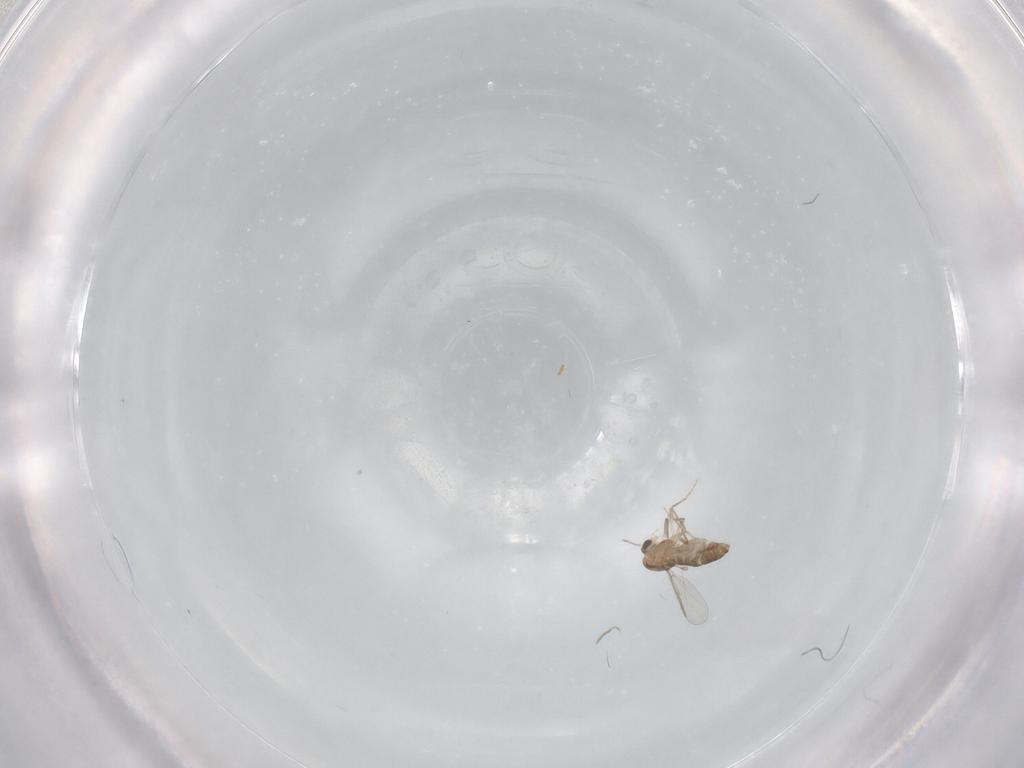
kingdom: Animalia
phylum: Arthropoda
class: Insecta
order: Diptera
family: Chironomidae
